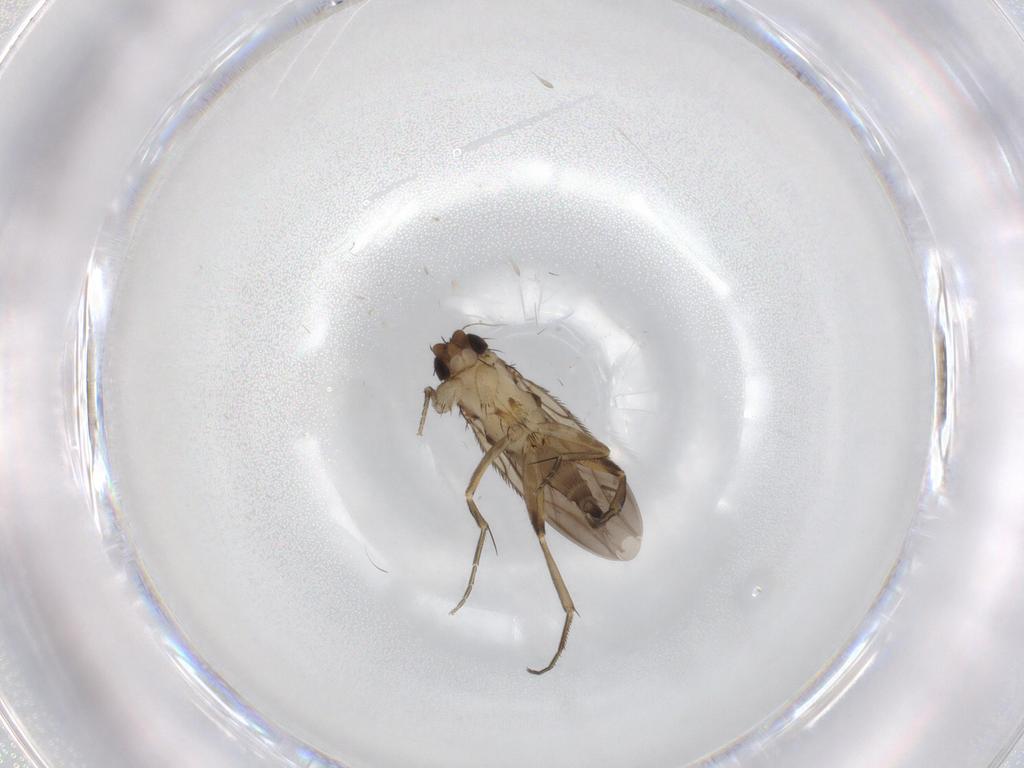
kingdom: Animalia
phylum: Arthropoda
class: Insecta
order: Diptera
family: Phoridae
